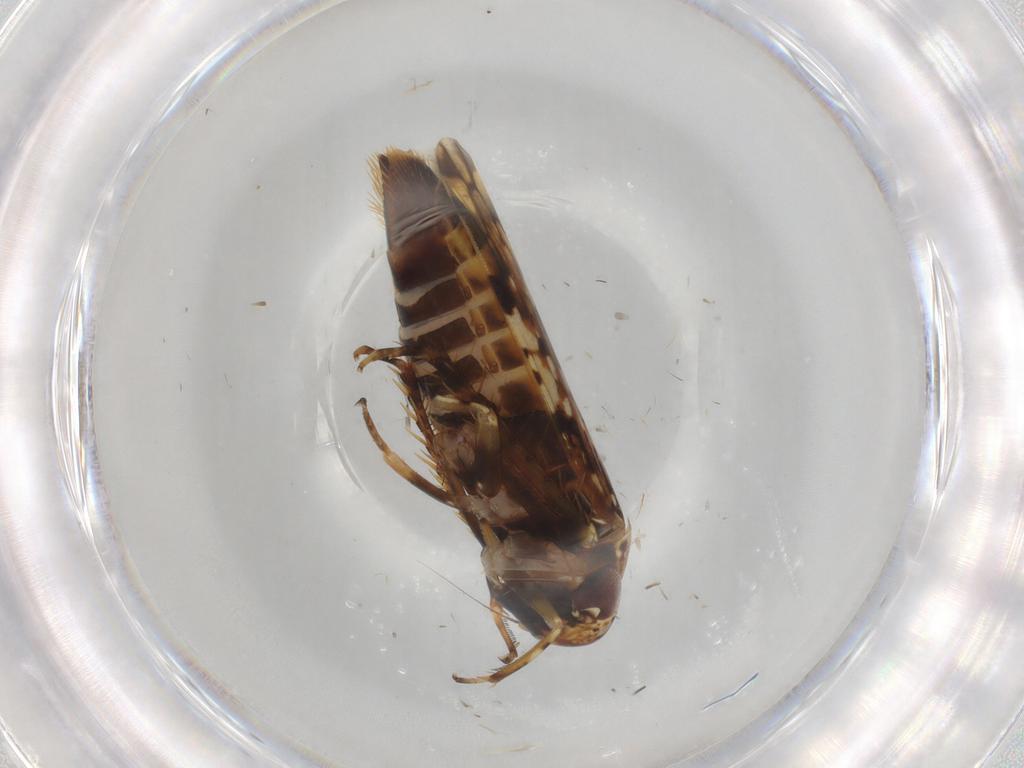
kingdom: Animalia
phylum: Arthropoda
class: Insecta
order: Hemiptera
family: Cicadellidae
